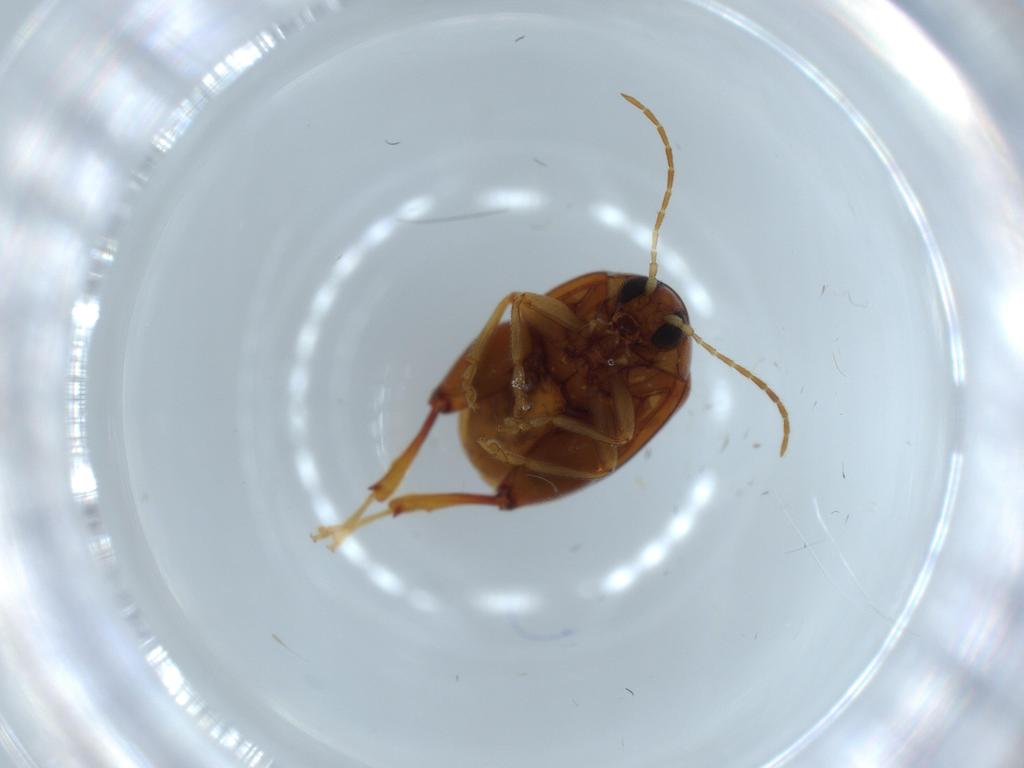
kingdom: Animalia
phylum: Arthropoda
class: Insecta
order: Coleoptera
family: Chrysomelidae
